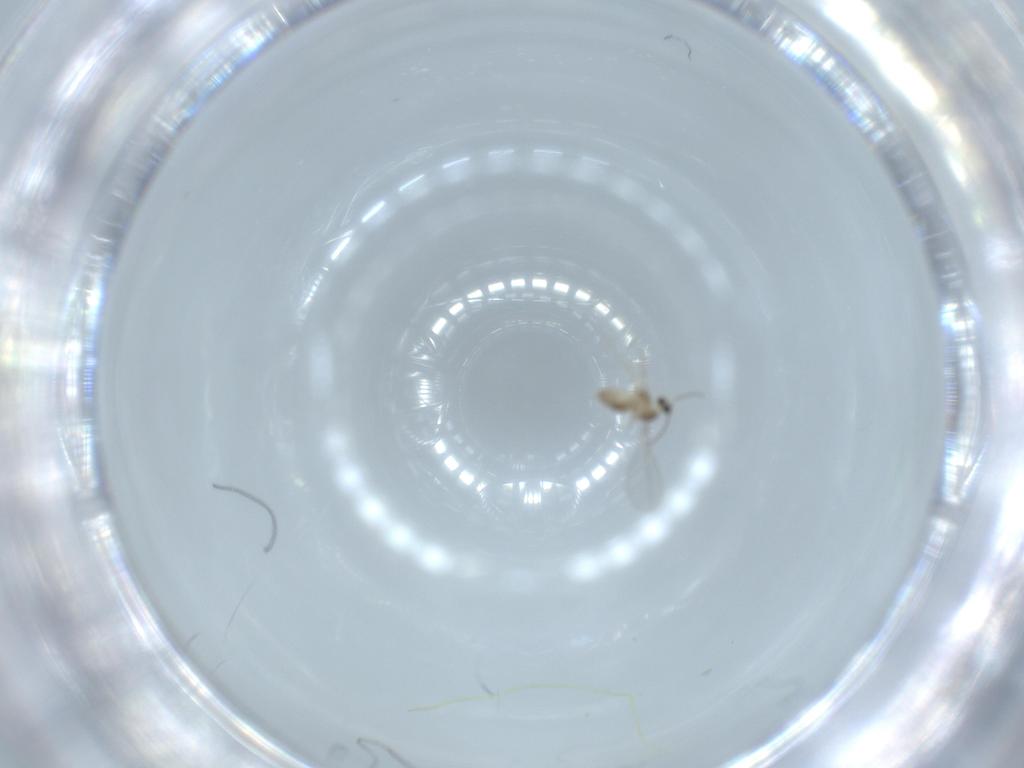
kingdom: Animalia
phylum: Arthropoda
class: Insecta
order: Diptera
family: Cecidomyiidae
